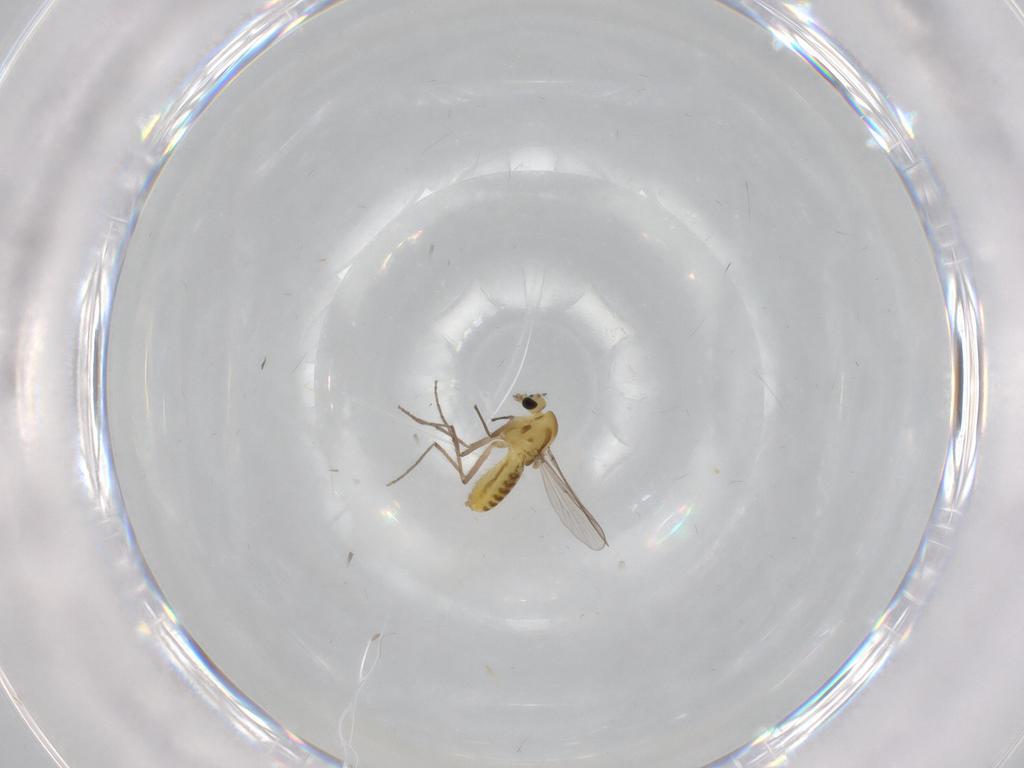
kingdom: Animalia
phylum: Arthropoda
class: Insecta
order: Diptera
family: Chironomidae
